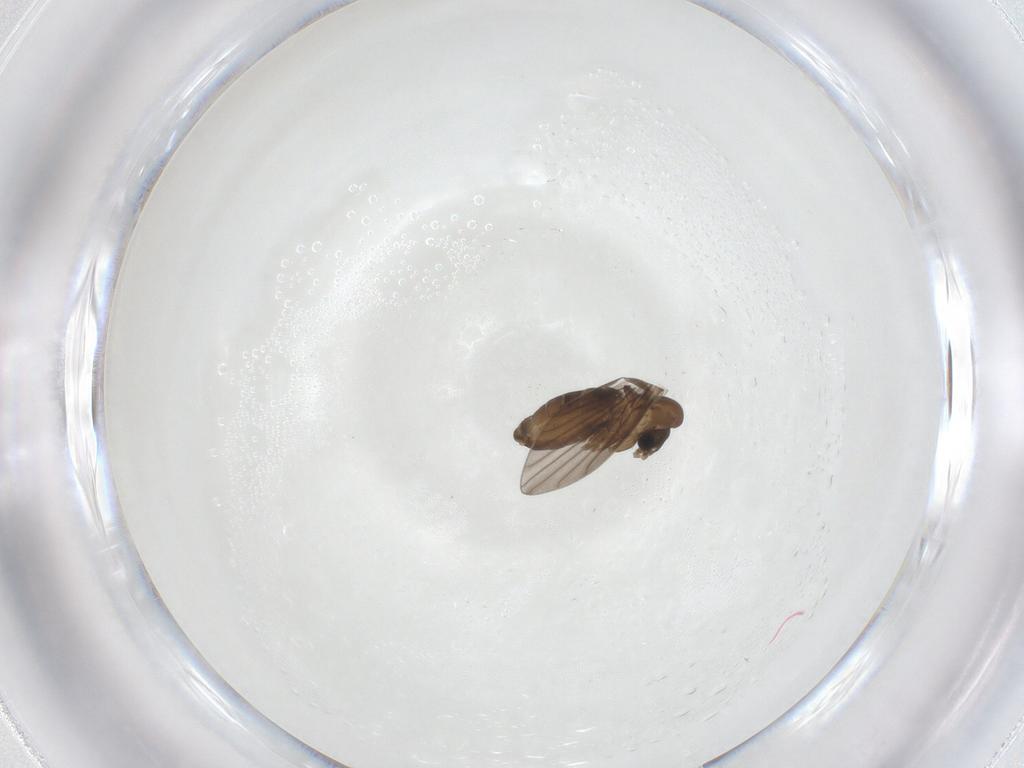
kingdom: Animalia
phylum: Arthropoda
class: Insecta
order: Diptera
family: Psychodidae
